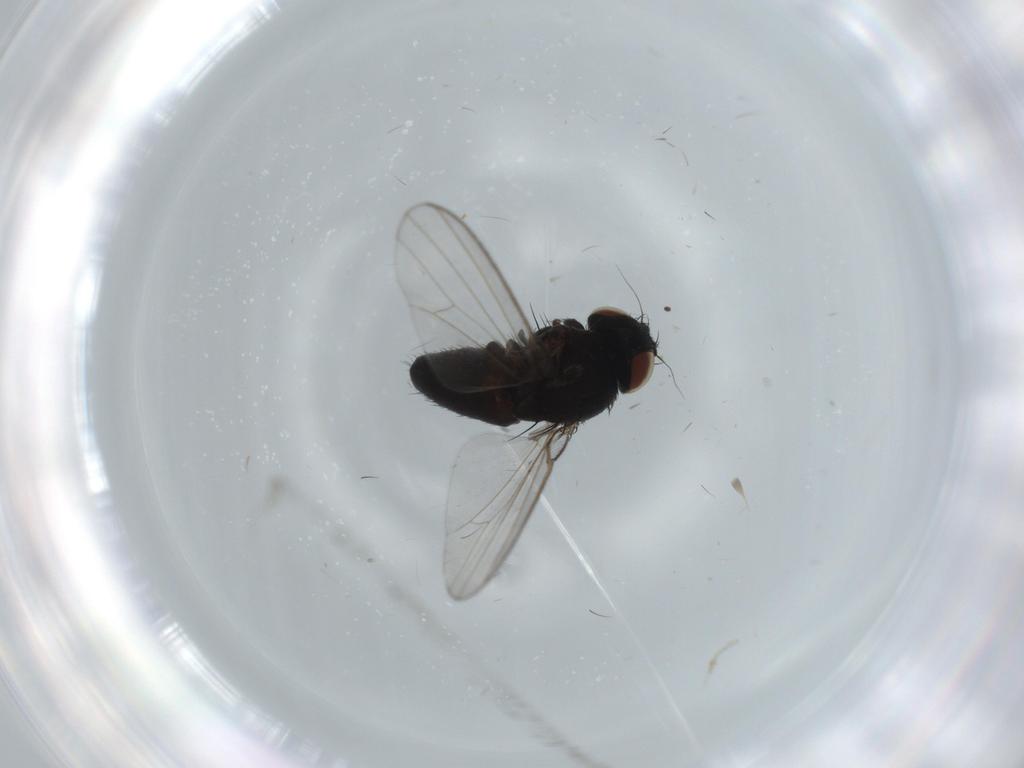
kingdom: Animalia
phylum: Arthropoda
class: Insecta
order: Diptera
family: Milichiidae
